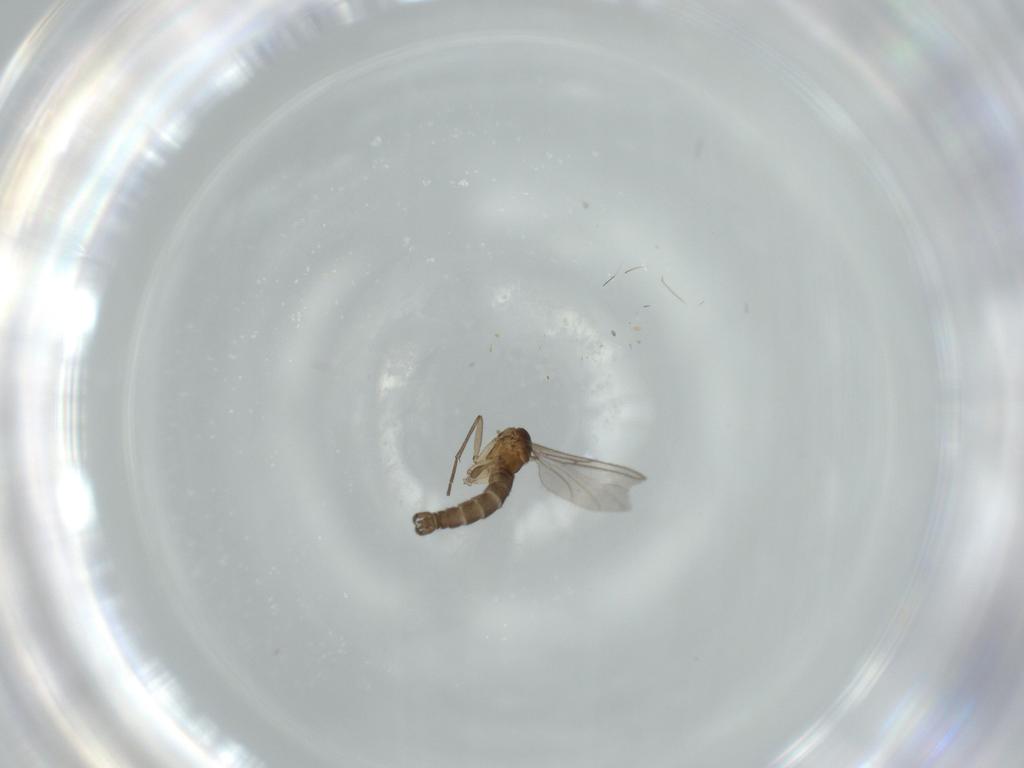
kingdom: Animalia
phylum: Arthropoda
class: Insecta
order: Diptera
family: Sciaridae
